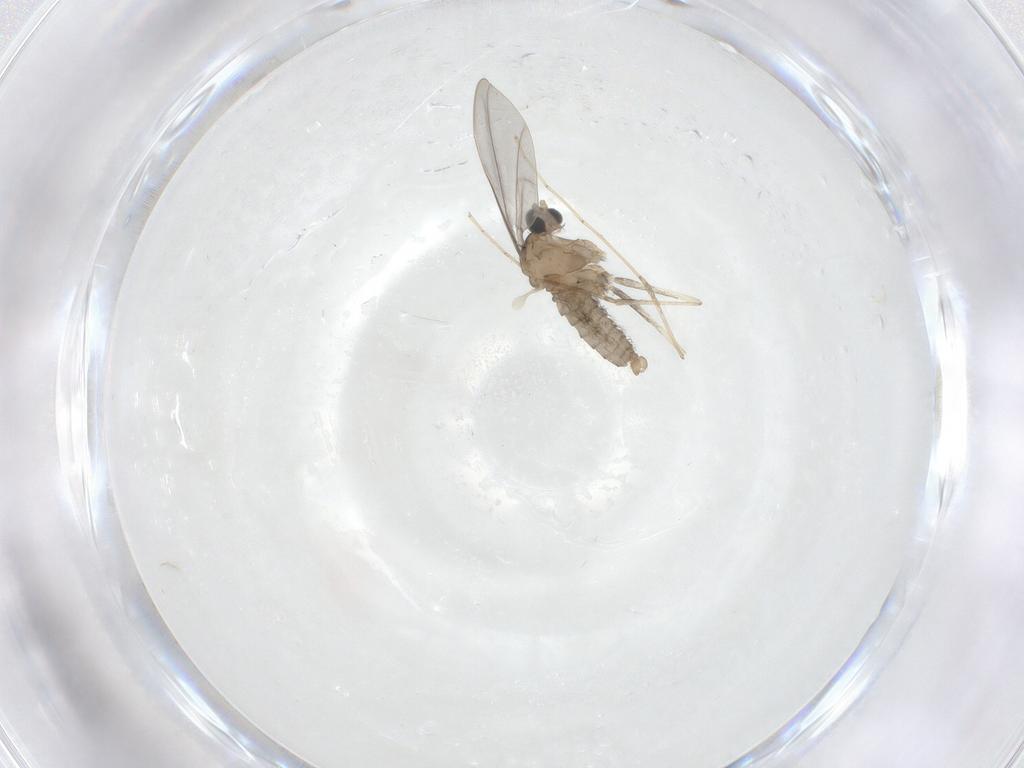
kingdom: Animalia
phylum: Arthropoda
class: Insecta
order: Diptera
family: Cecidomyiidae
